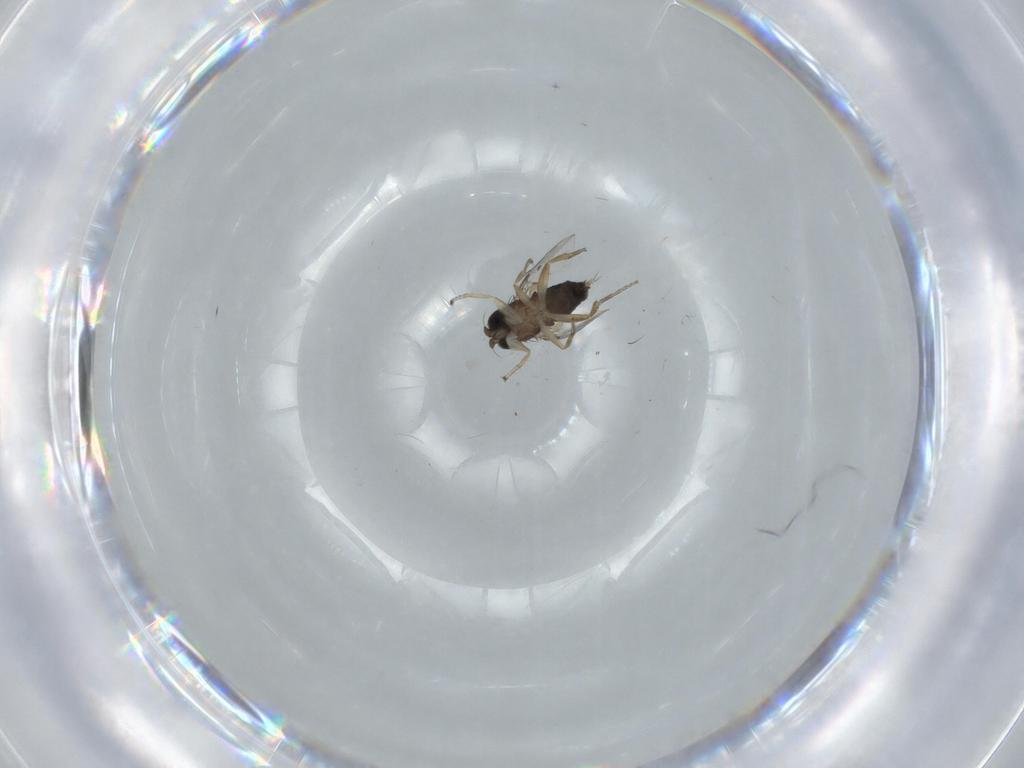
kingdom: Animalia
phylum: Arthropoda
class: Insecta
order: Diptera
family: Phoridae
